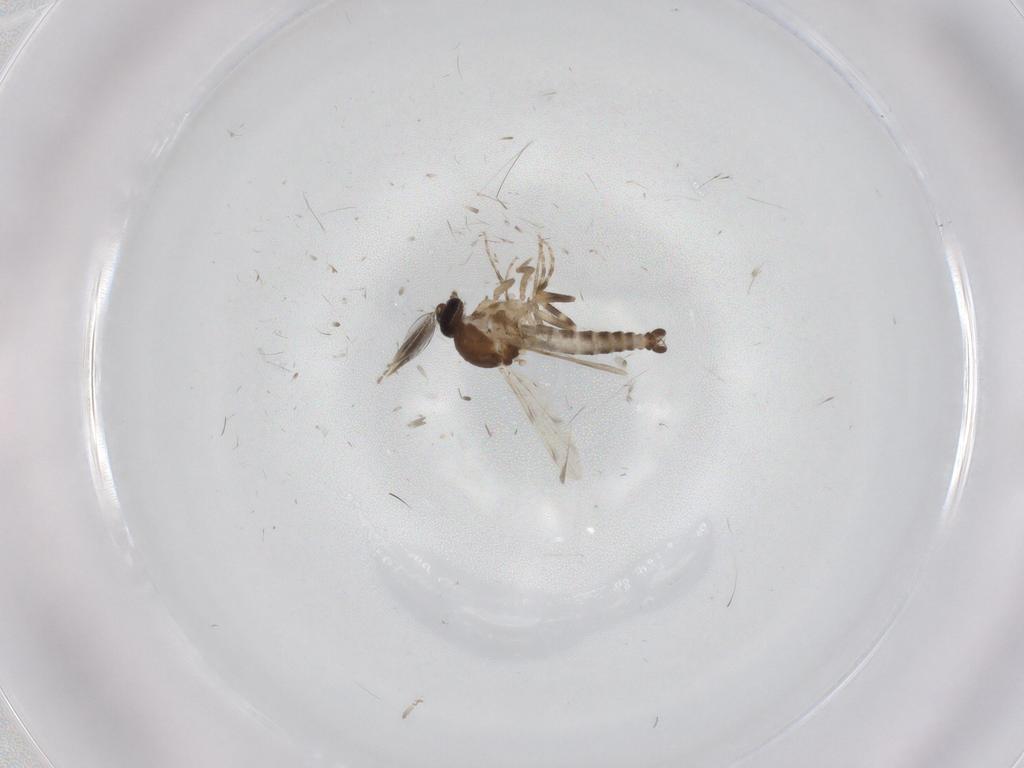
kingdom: Animalia
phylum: Arthropoda
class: Insecta
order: Diptera
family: Ceratopogonidae
